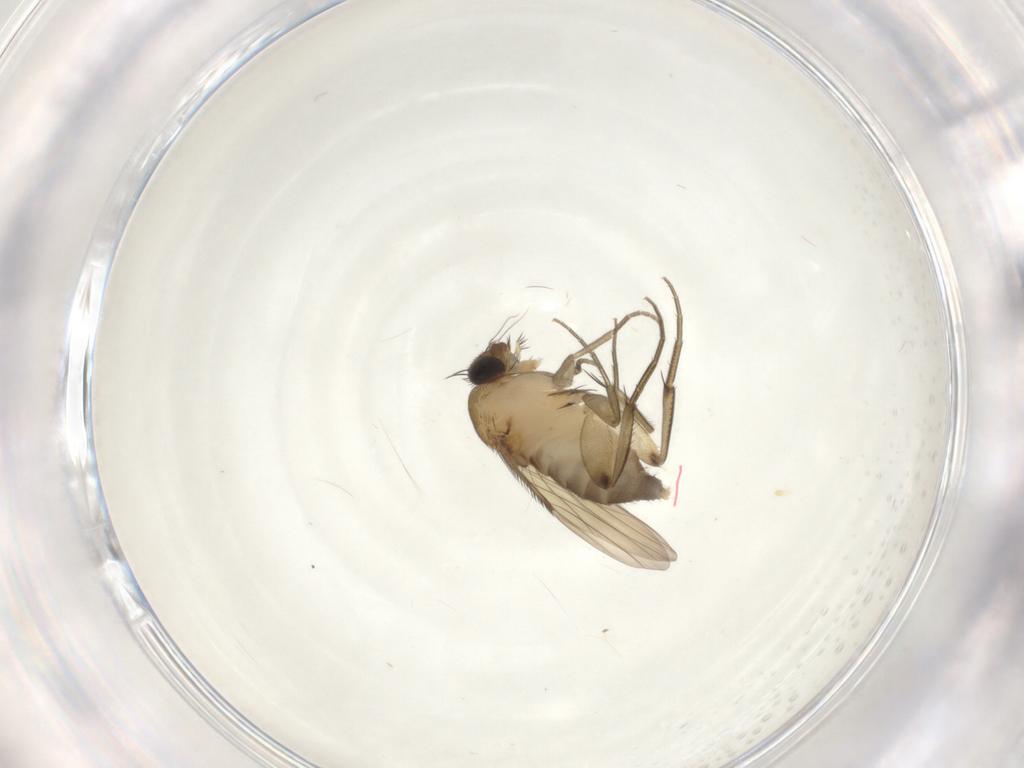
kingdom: Animalia
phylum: Arthropoda
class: Insecta
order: Diptera
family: Phoridae
